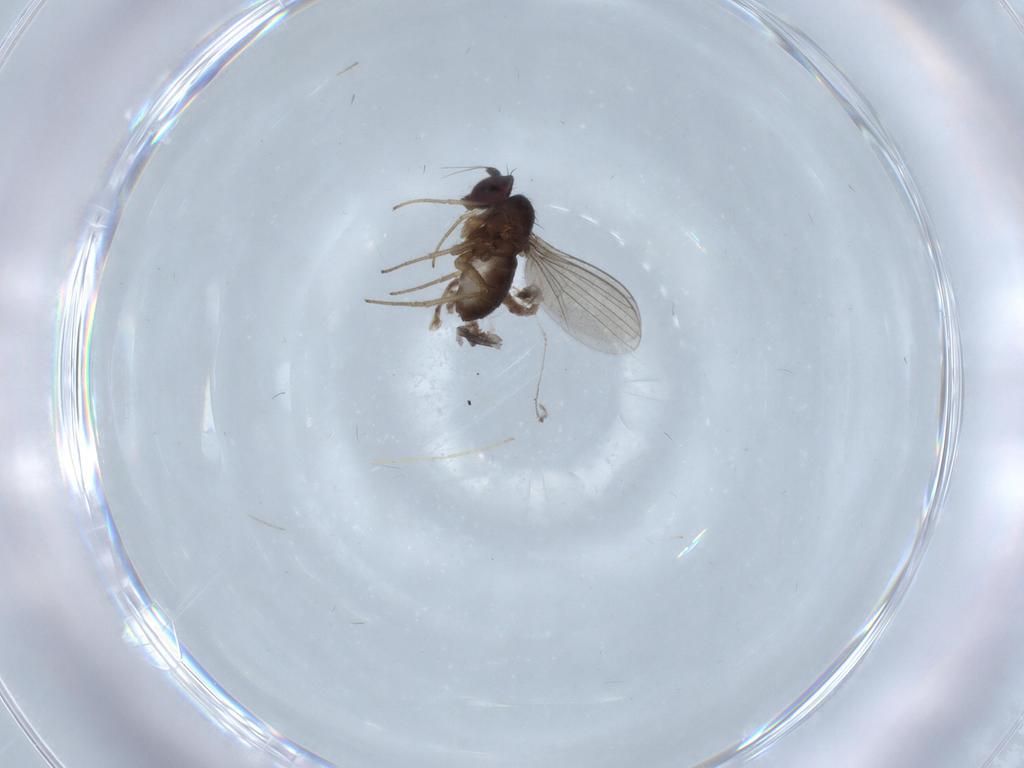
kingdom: Animalia
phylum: Arthropoda
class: Insecta
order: Diptera
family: Dolichopodidae
